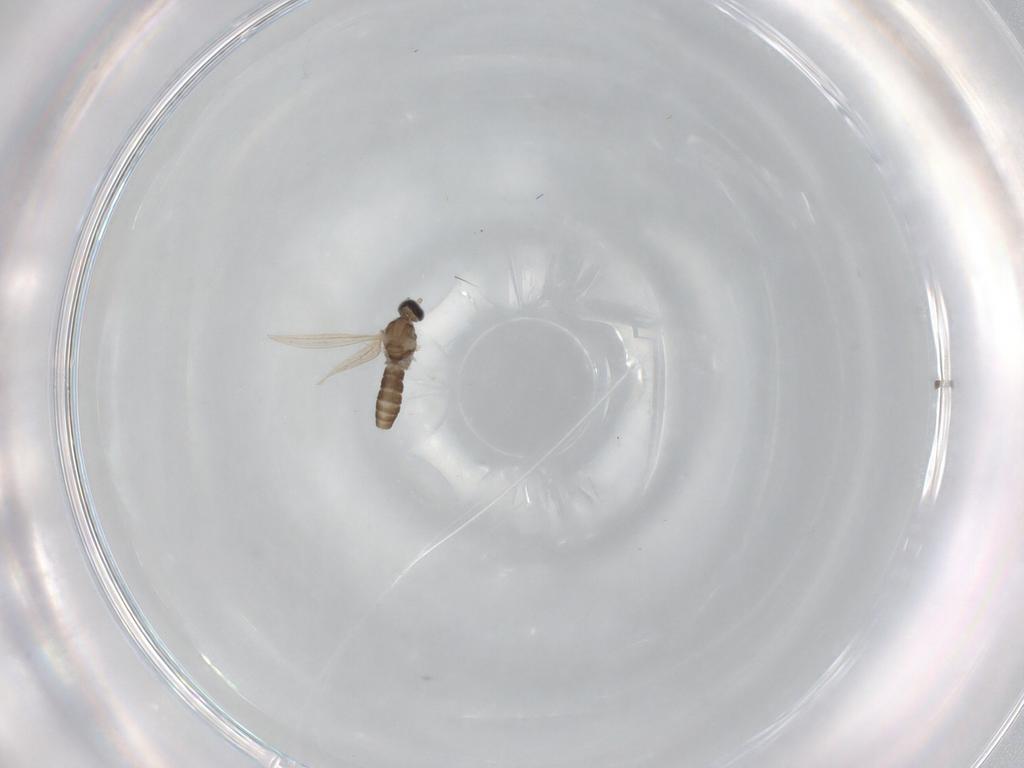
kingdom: Animalia
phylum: Arthropoda
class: Insecta
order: Diptera
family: Cecidomyiidae
